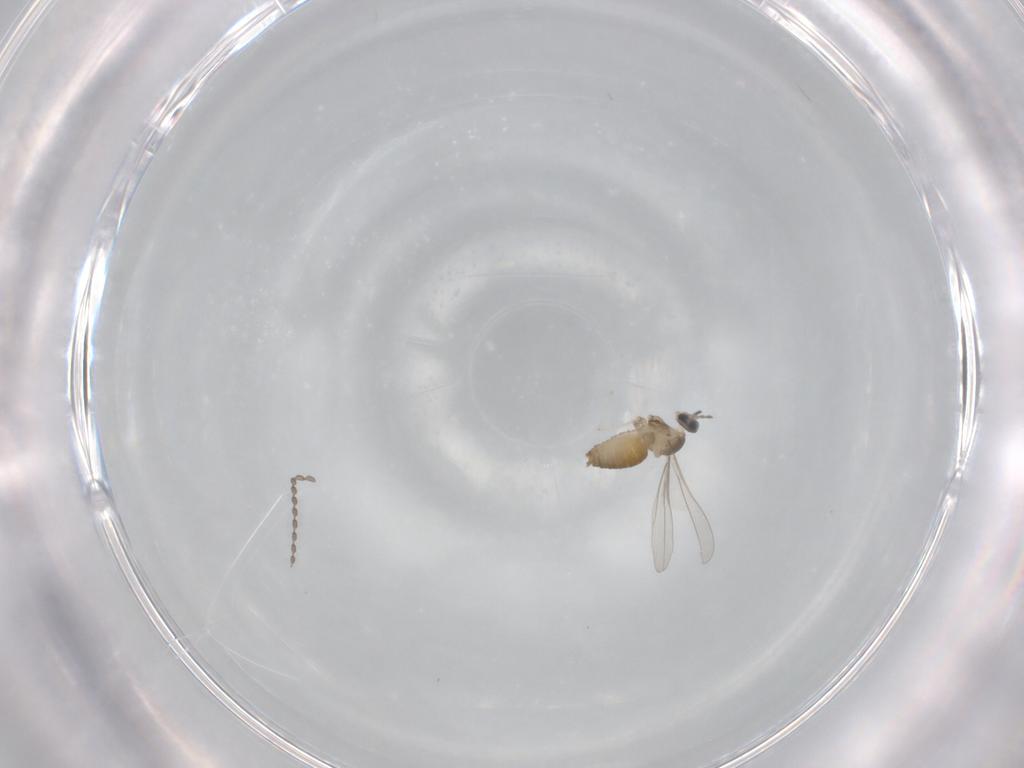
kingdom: Animalia
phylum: Arthropoda
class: Insecta
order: Diptera
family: Cecidomyiidae
